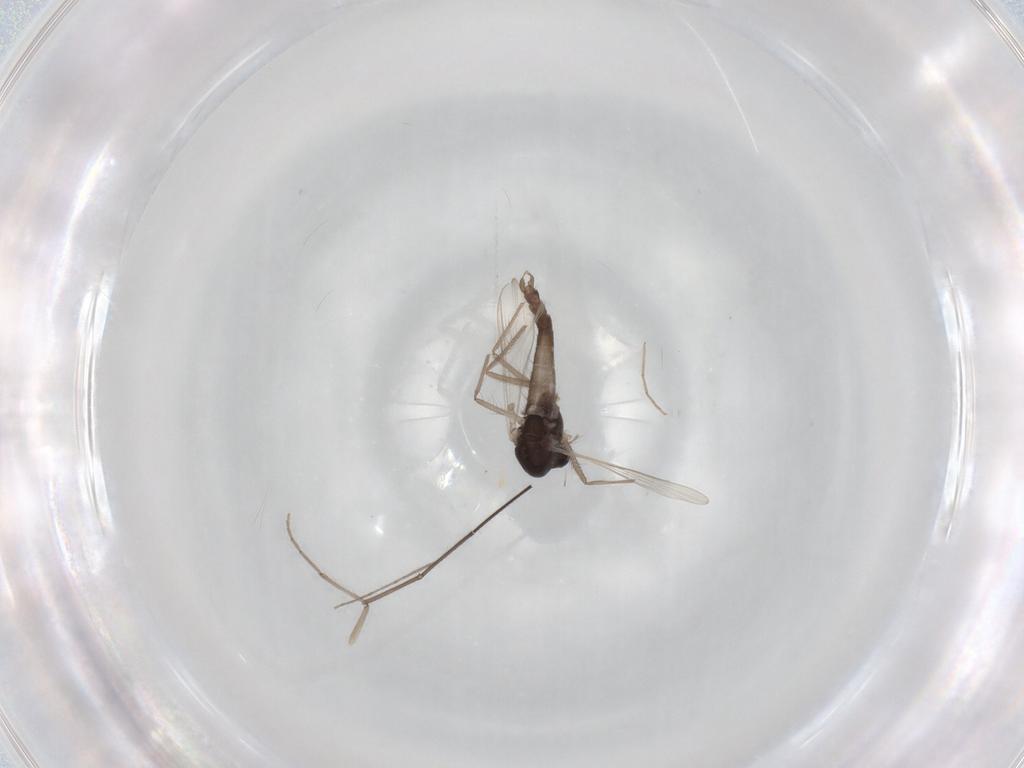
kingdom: Animalia
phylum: Arthropoda
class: Insecta
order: Diptera
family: Chironomidae
